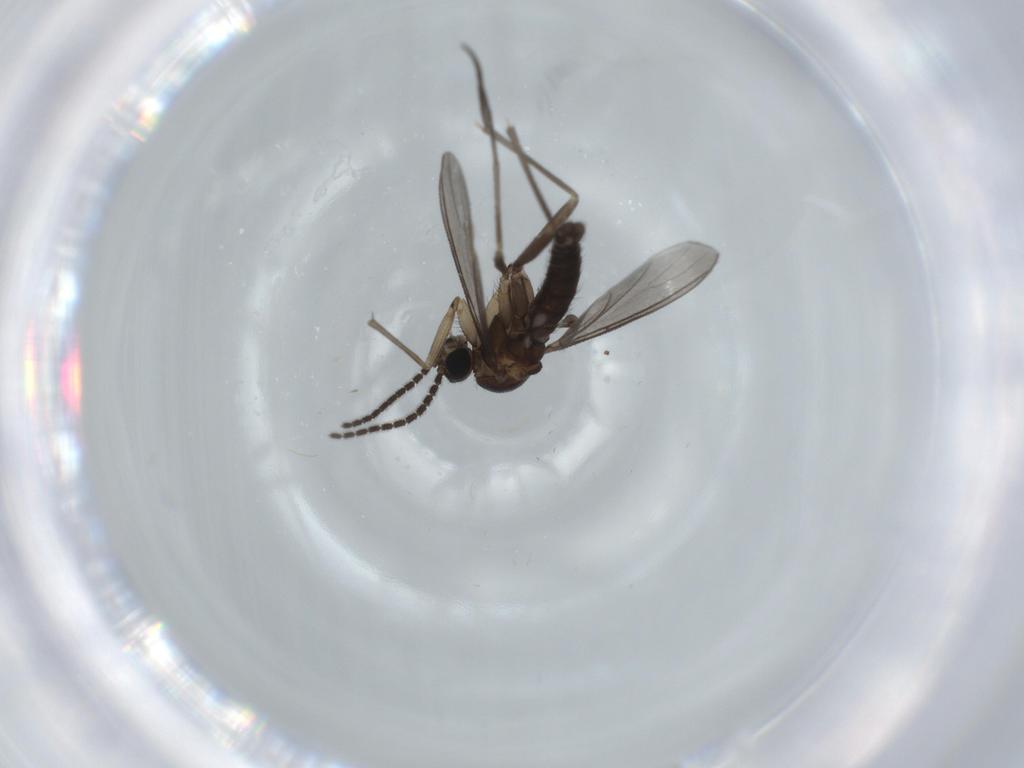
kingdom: Animalia
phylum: Arthropoda
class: Insecta
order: Diptera
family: Sciaridae
